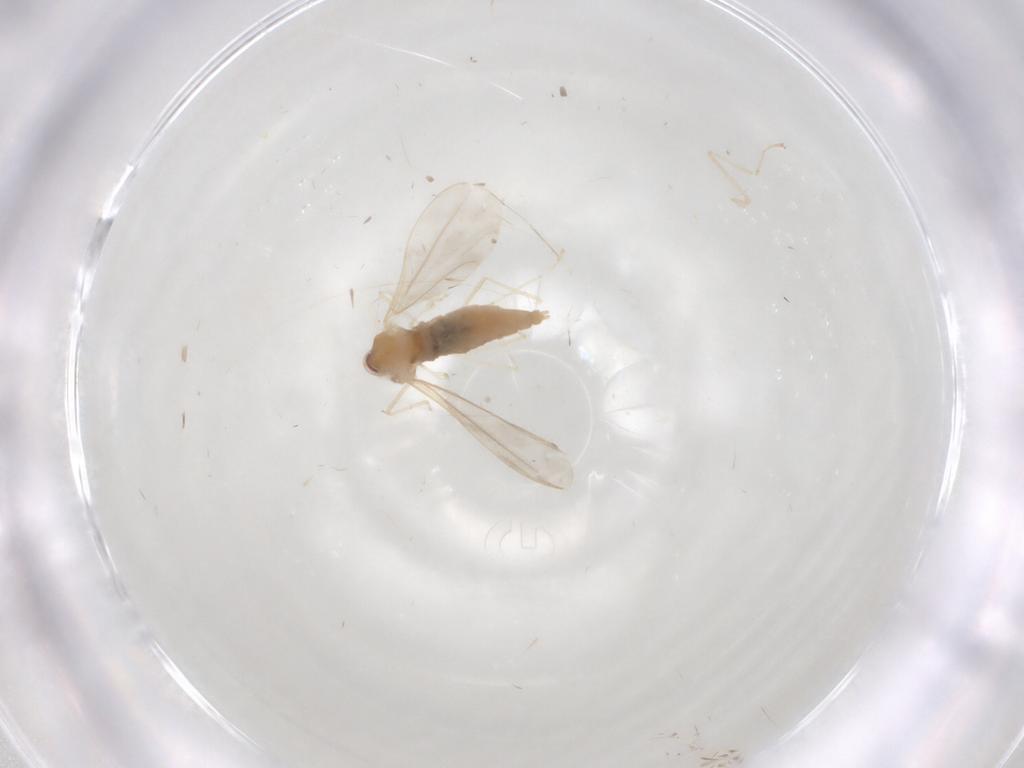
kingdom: Animalia
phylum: Arthropoda
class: Insecta
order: Diptera
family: Cecidomyiidae
